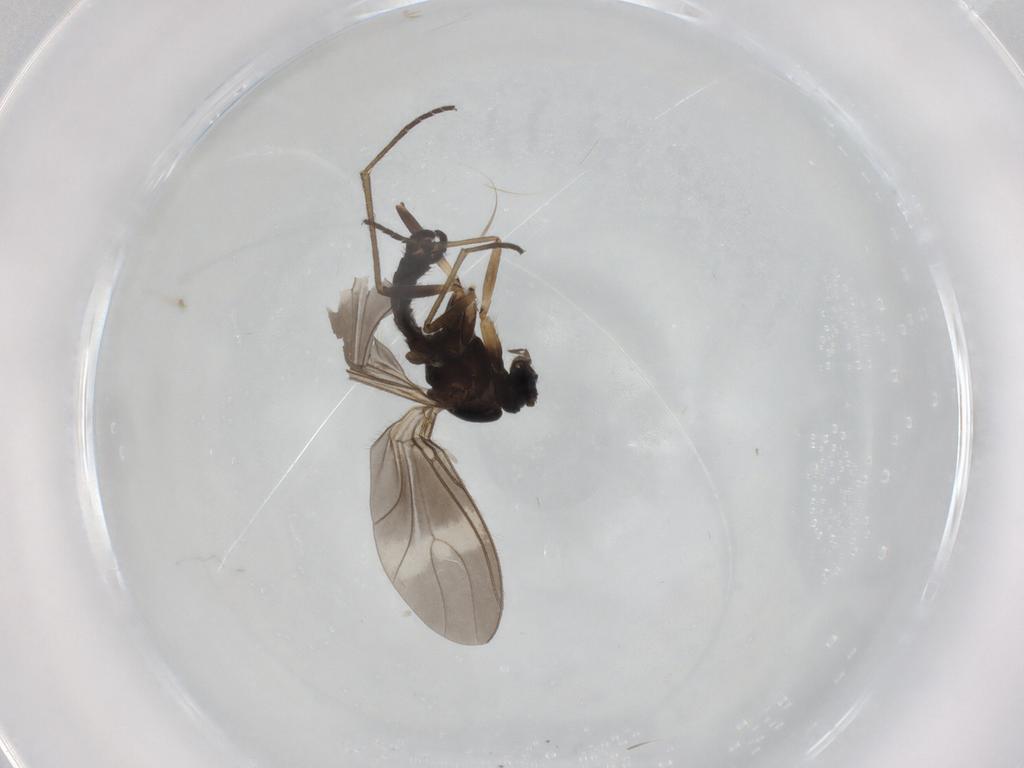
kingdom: Animalia
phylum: Arthropoda
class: Insecta
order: Diptera
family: Sciaridae
